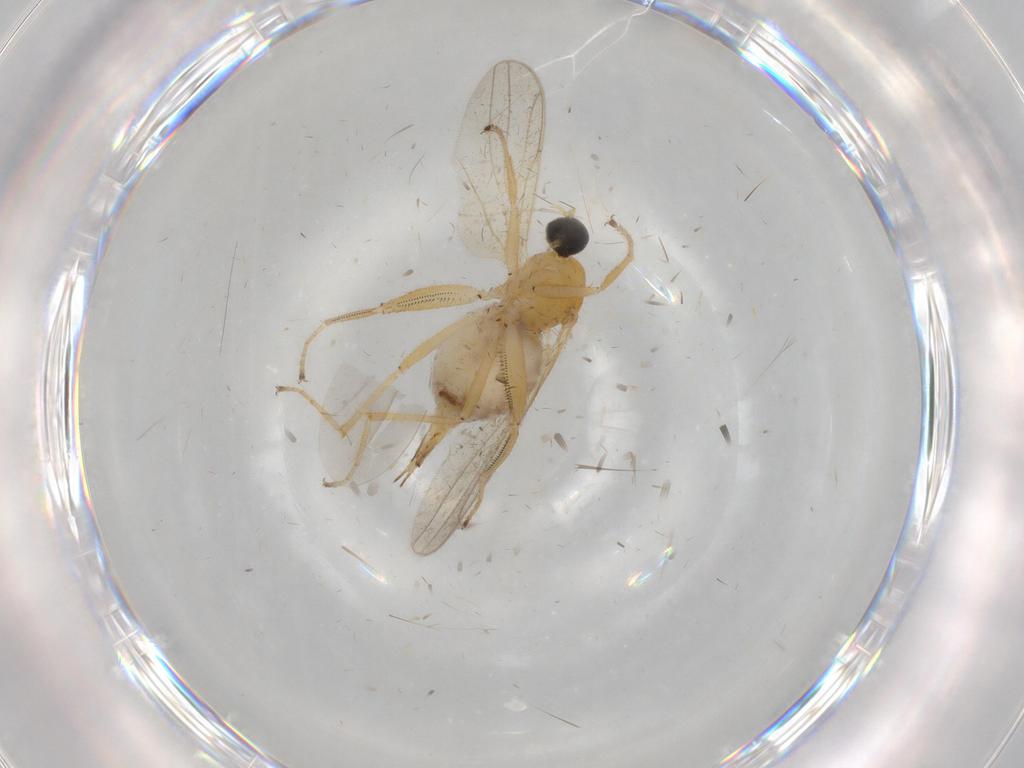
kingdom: Animalia
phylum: Arthropoda
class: Insecta
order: Diptera
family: Hybotidae
